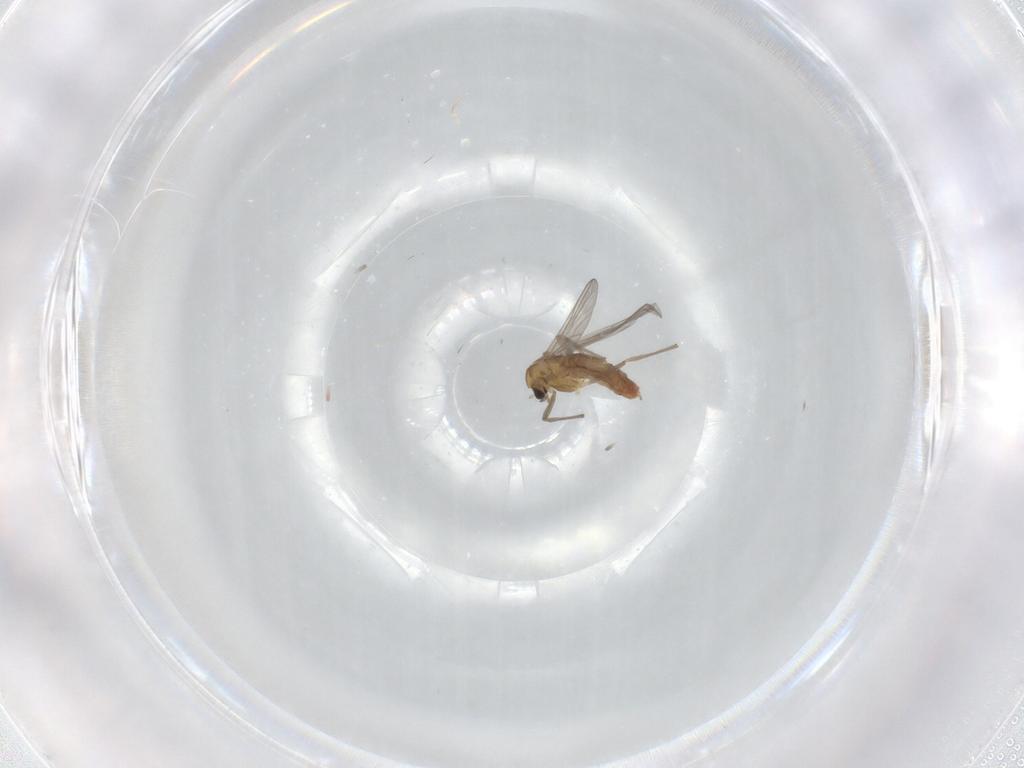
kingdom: Animalia
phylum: Arthropoda
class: Insecta
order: Diptera
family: Chironomidae
